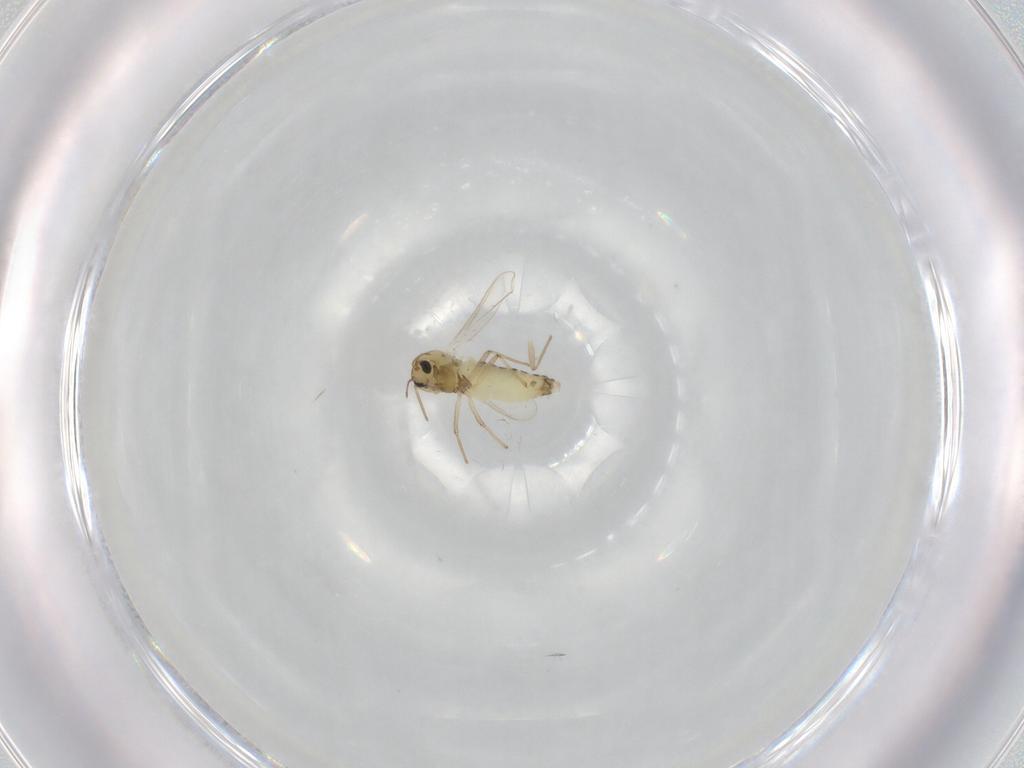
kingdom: Animalia
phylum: Arthropoda
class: Insecta
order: Diptera
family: Chironomidae
